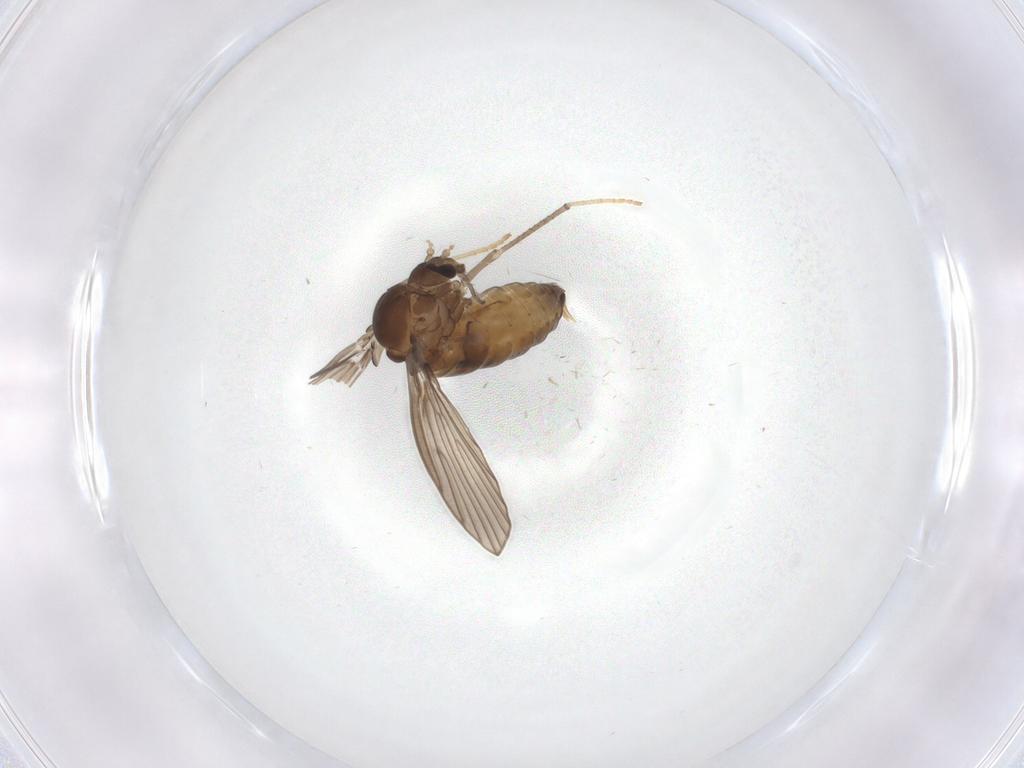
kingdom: Animalia
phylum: Arthropoda
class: Insecta
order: Diptera
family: Psychodidae
